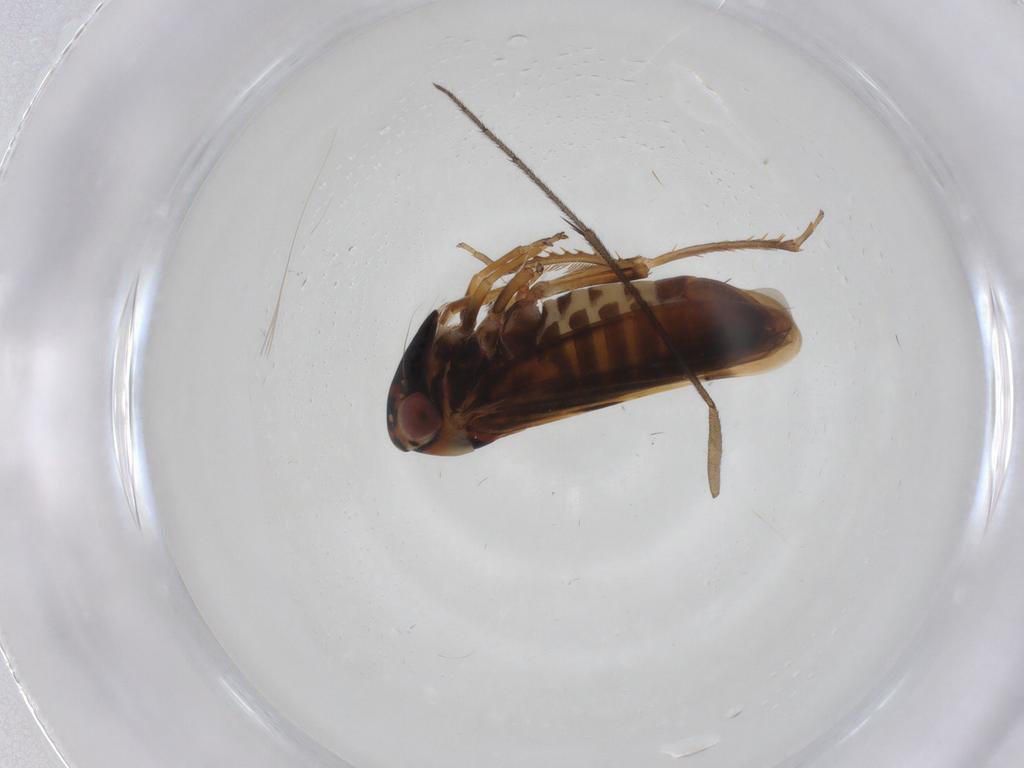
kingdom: Animalia
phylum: Arthropoda
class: Insecta
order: Hemiptera
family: Cicadellidae
